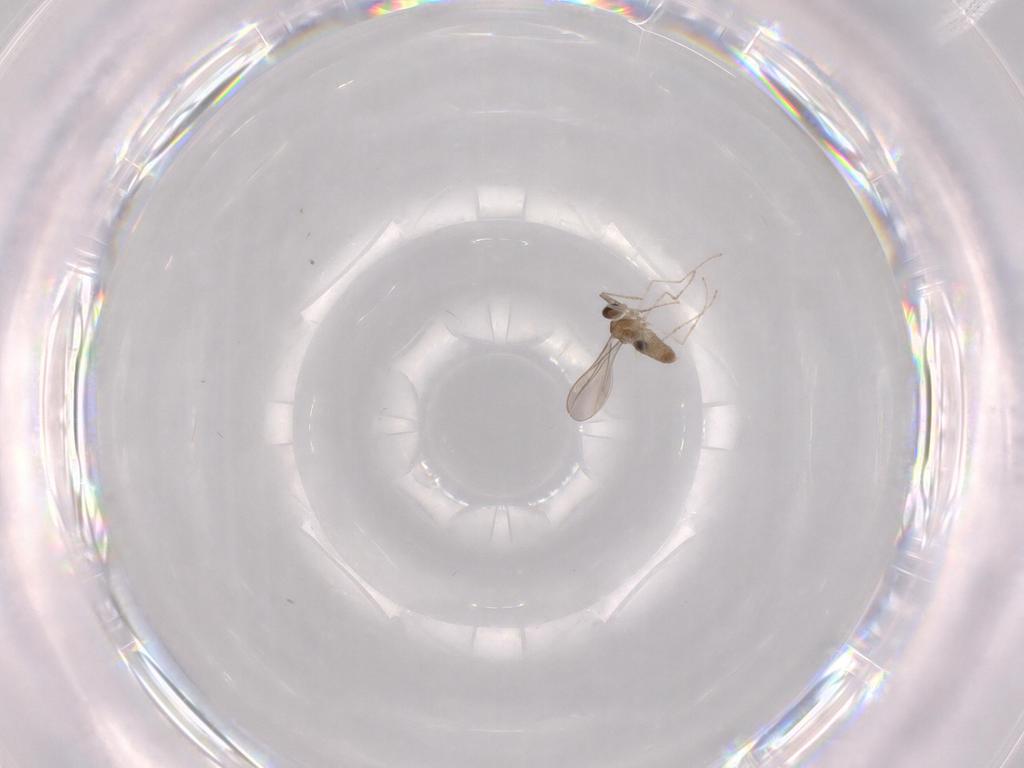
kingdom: Animalia
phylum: Arthropoda
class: Insecta
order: Diptera
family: Cecidomyiidae
